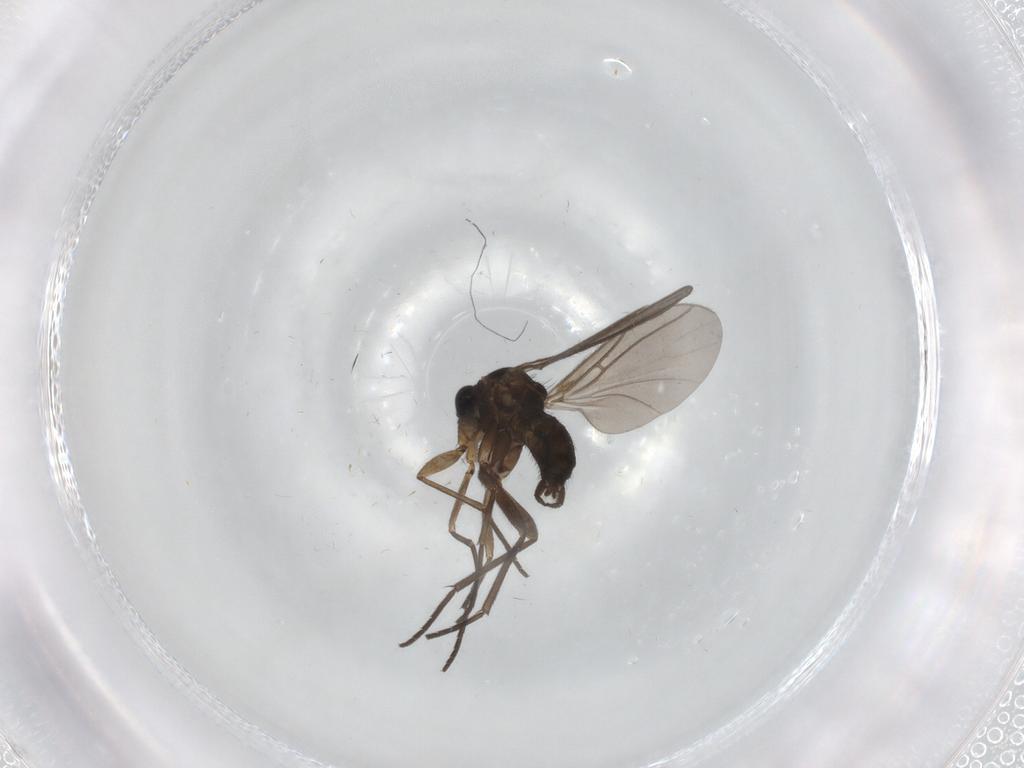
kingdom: Animalia
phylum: Arthropoda
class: Insecta
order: Diptera
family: Sciaridae
